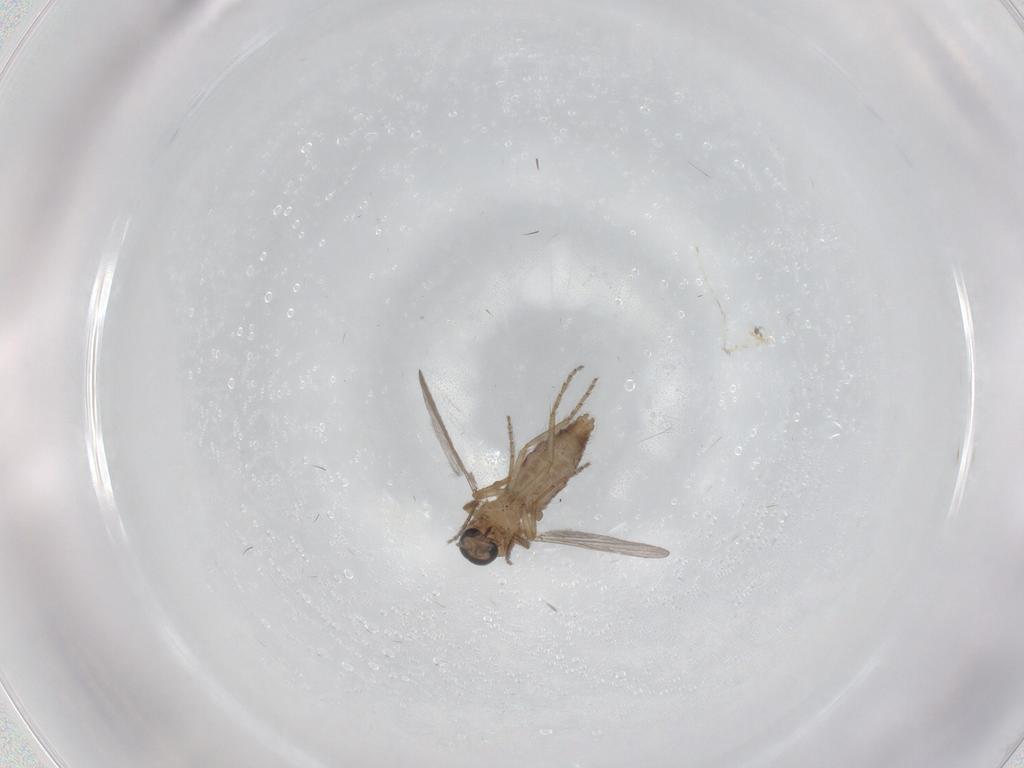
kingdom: Animalia
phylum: Arthropoda
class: Insecta
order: Diptera
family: Ceratopogonidae
